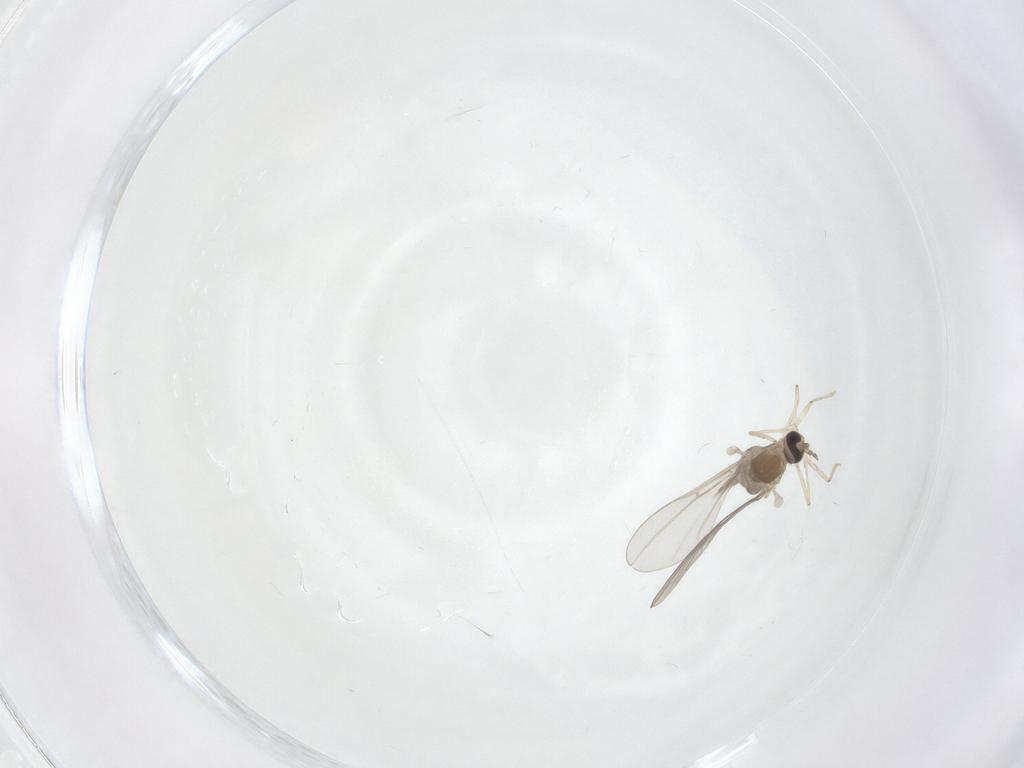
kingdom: Animalia
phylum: Arthropoda
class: Insecta
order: Diptera
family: Cecidomyiidae
